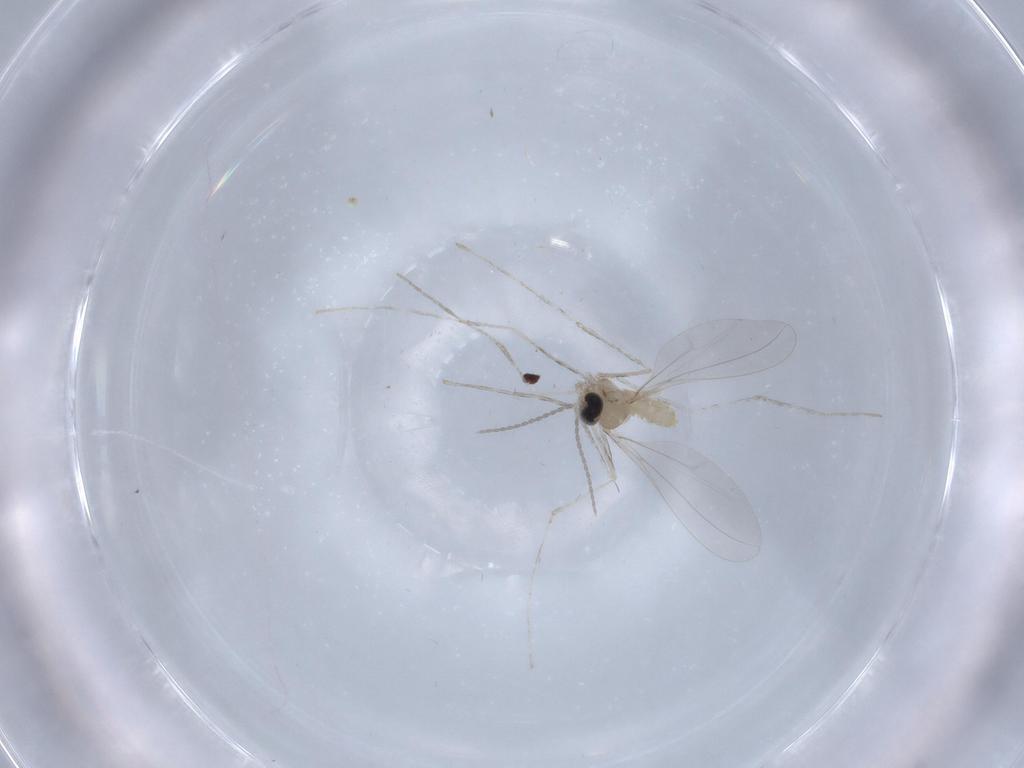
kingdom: Animalia
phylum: Arthropoda
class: Insecta
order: Diptera
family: Cecidomyiidae
